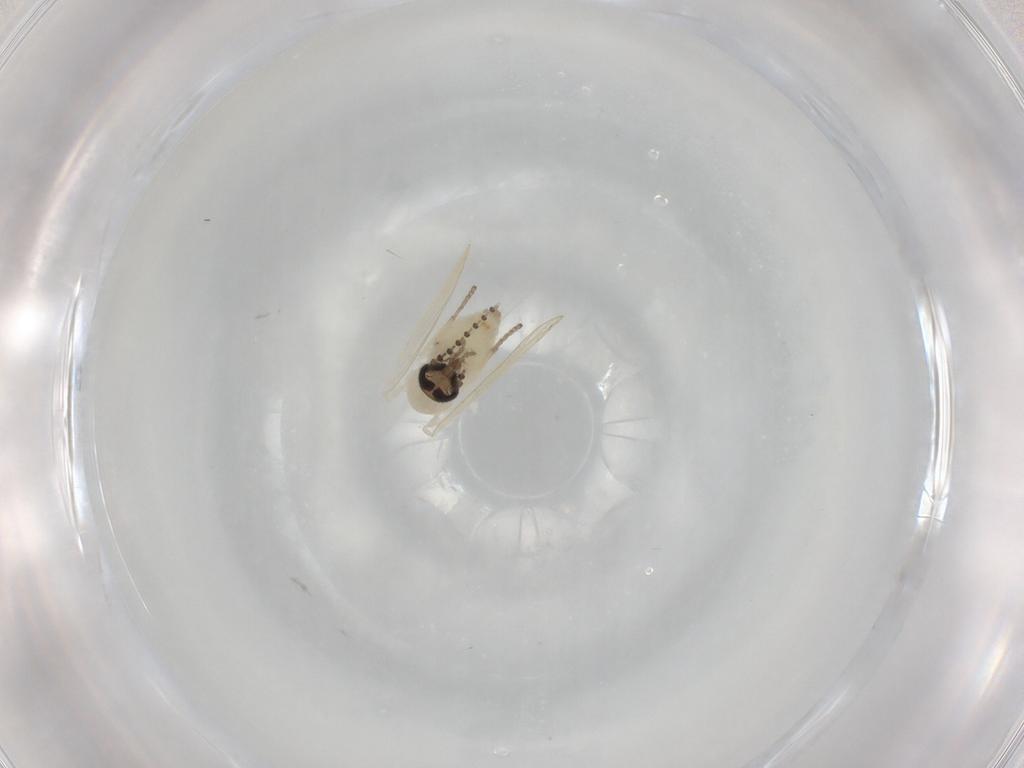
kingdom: Animalia
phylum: Arthropoda
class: Insecta
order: Diptera
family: Psychodidae
